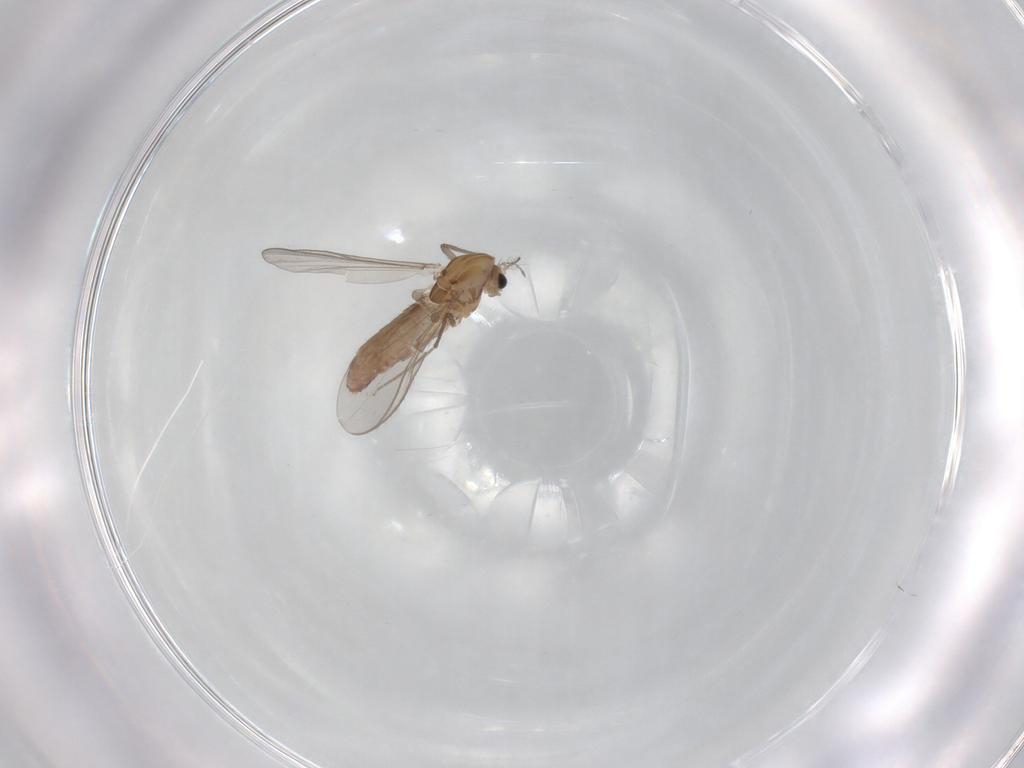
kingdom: Animalia
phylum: Arthropoda
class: Insecta
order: Diptera
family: Chironomidae
